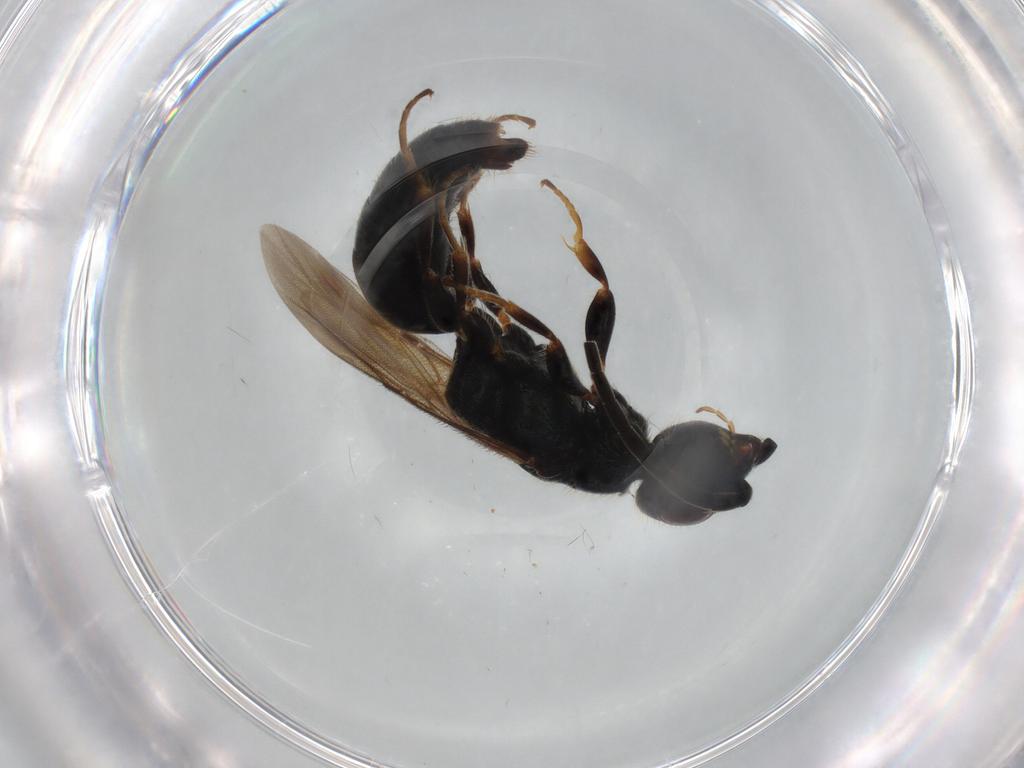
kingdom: Animalia
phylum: Arthropoda
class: Insecta
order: Hymenoptera
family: Bethylidae
